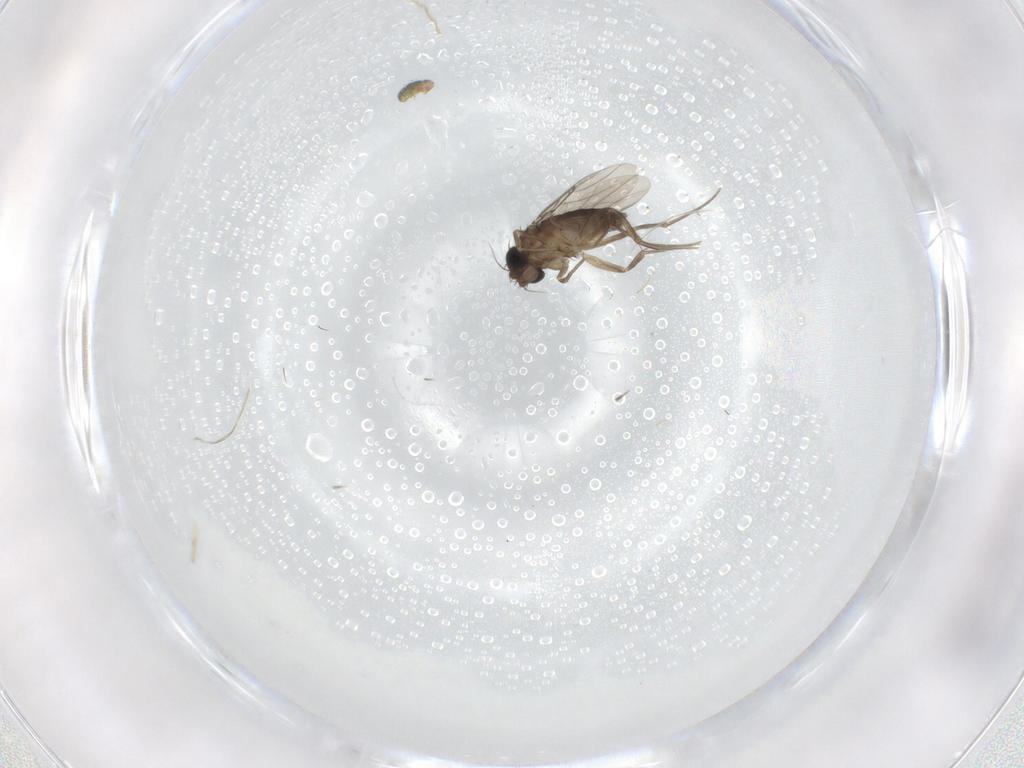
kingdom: Animalia
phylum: Arthropoda
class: Insecta
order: Diptera
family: Phoridae
